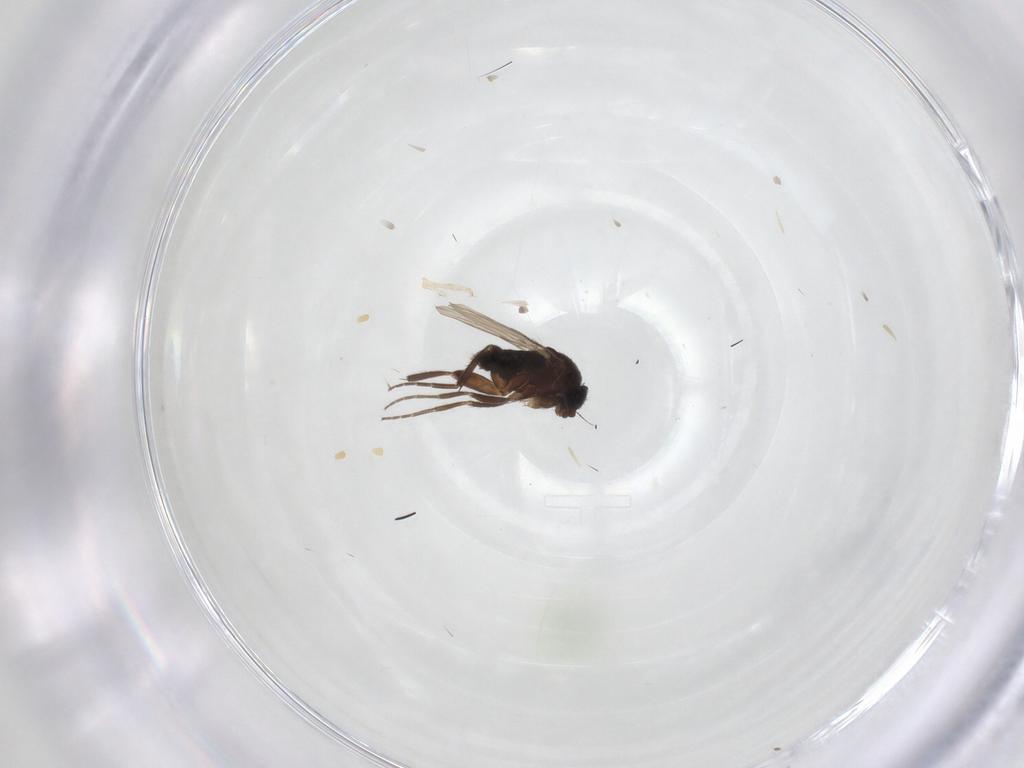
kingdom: Animalia
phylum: Arthropoda
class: Insecta
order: Diptera
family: Phoridae
